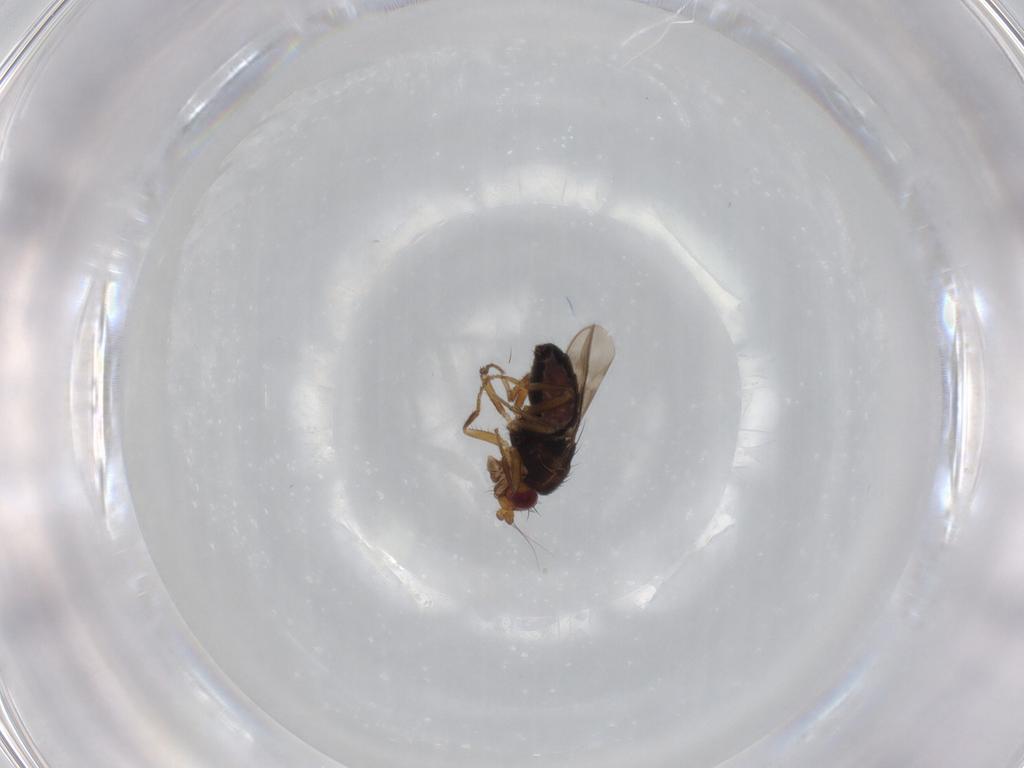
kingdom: Animalia
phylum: Arthropoda
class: Insecta
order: Diptera
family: Sphaeroceridae
